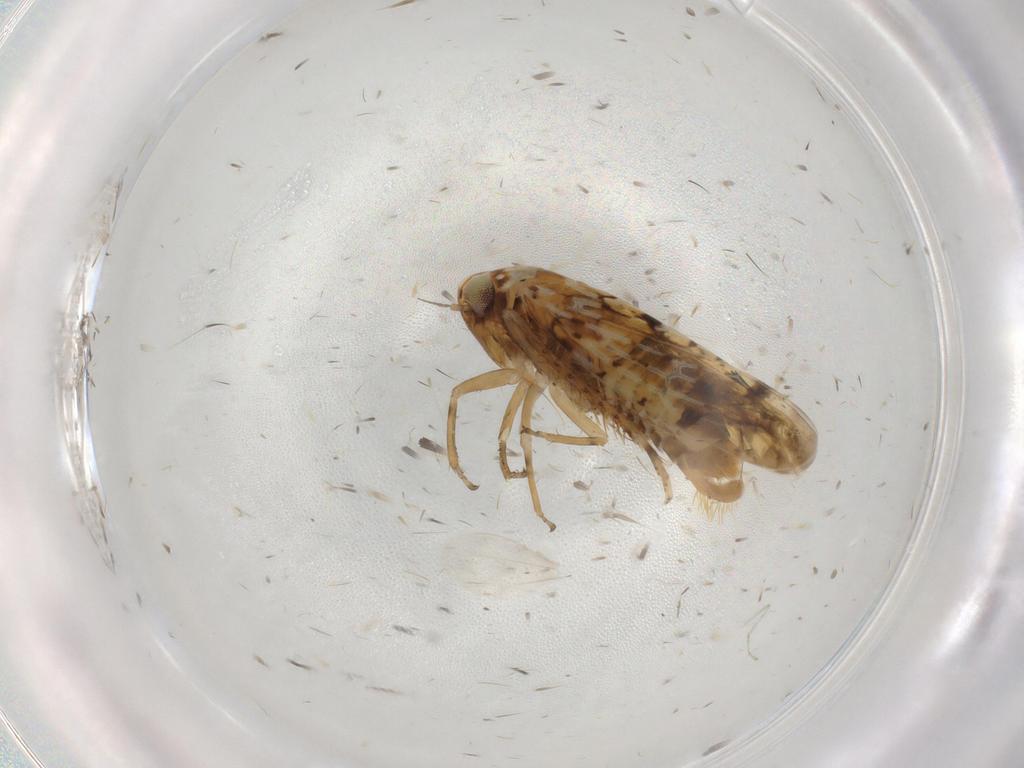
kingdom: Animalia
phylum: Arthropoda
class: Insecta
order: Hemiptera
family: Cicadellidae
